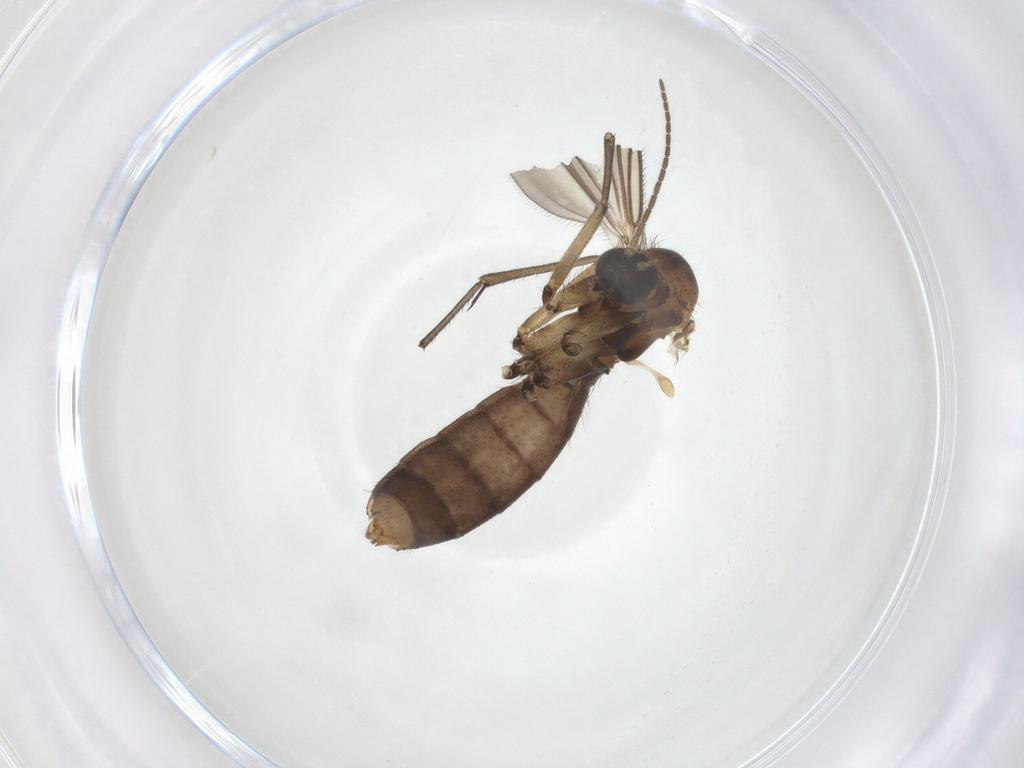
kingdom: Animalia
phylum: Arthropoda
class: Insecta
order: Diptera
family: Mycetophilidae
